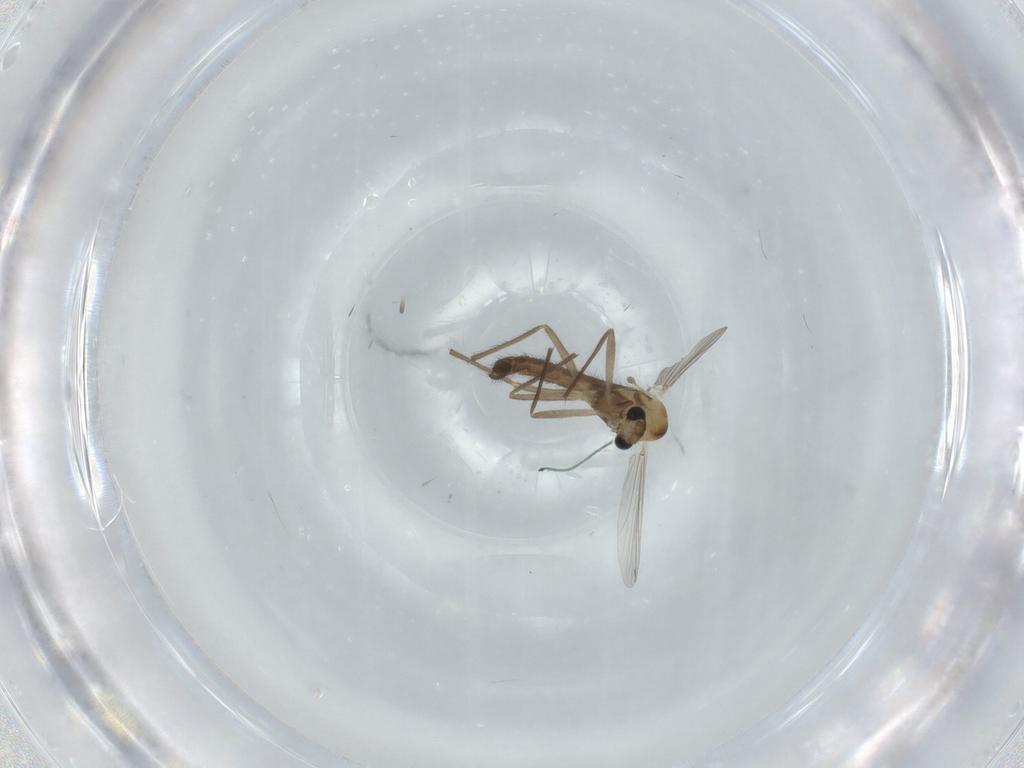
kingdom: Animalia
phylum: Arthropoda
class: Insecta
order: Diptera
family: Chironomidae
